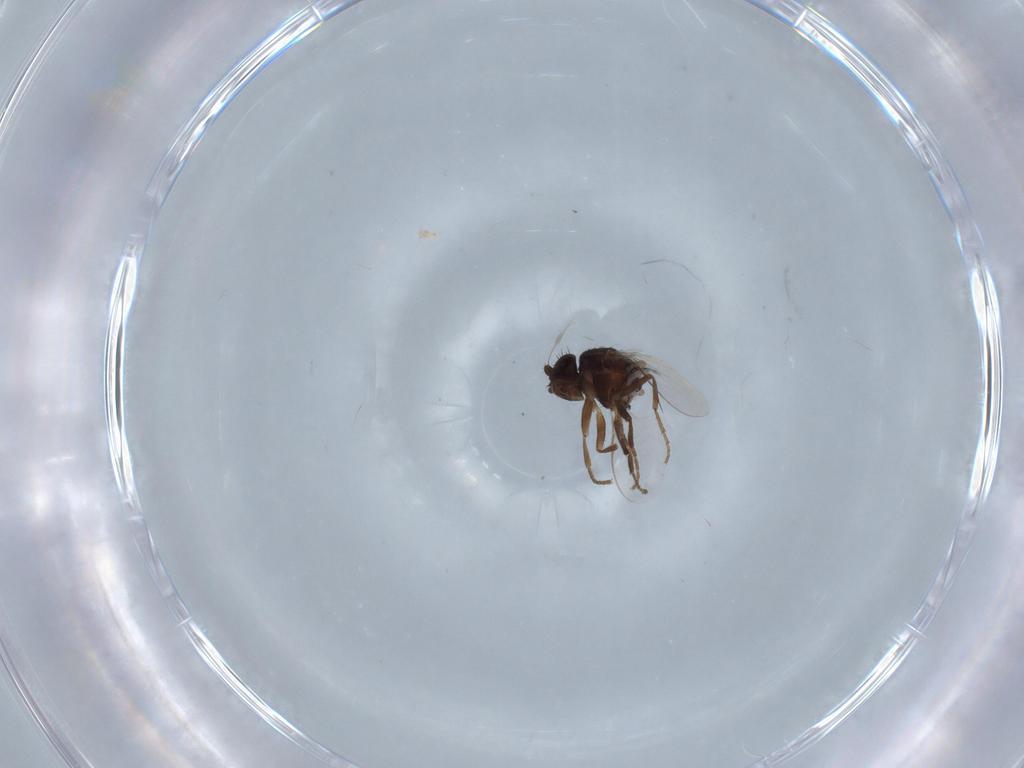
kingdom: Animalia
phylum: Arthropoda
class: Insecta
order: Diptera
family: Sphaeroceridae
